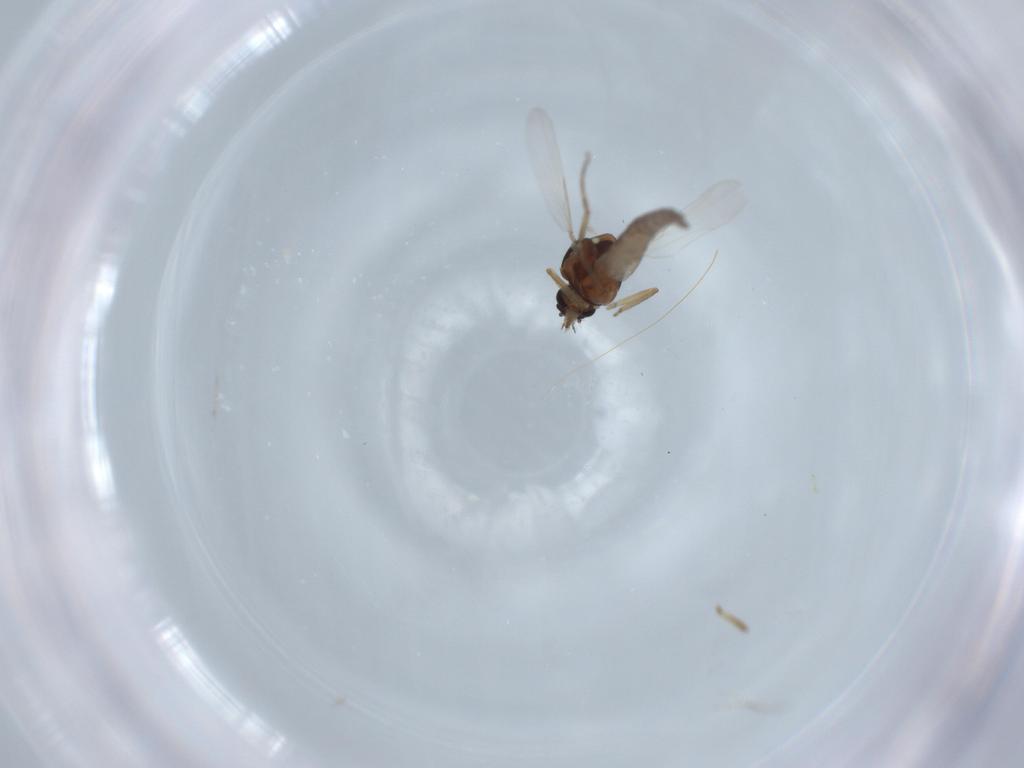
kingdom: Animalia
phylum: Arthropoda
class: Insecta
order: Diptera
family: Ceratopogonidae
